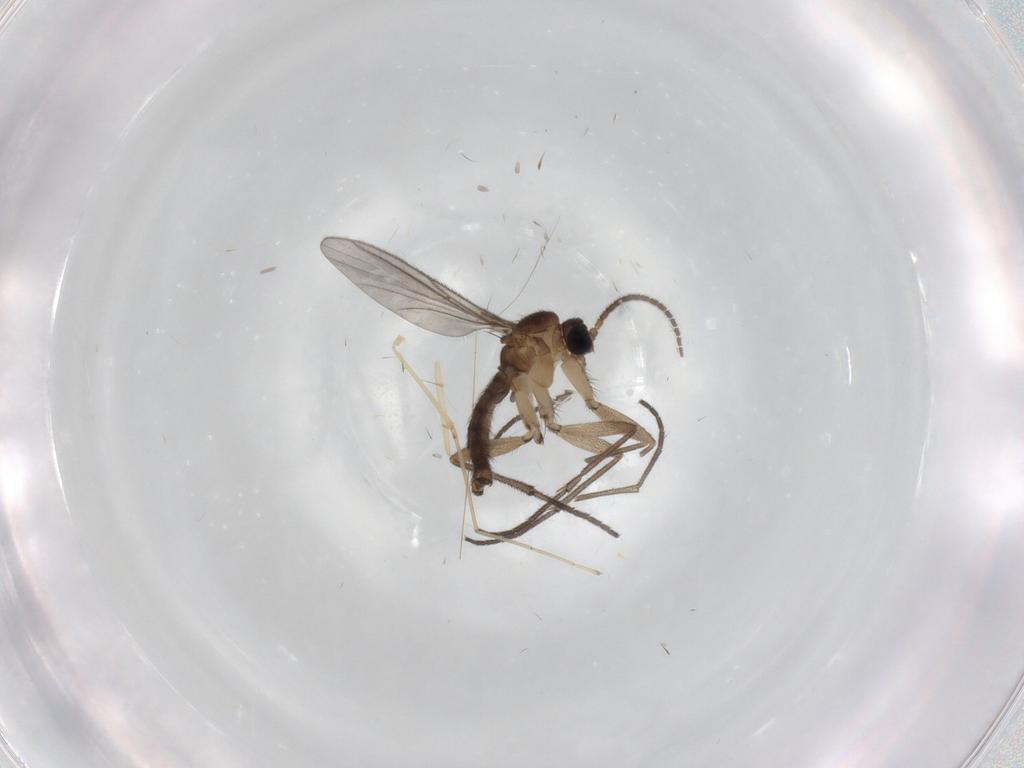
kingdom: Animalia
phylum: Arthropoda
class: Insecta
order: Diptera
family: Sciaridae
